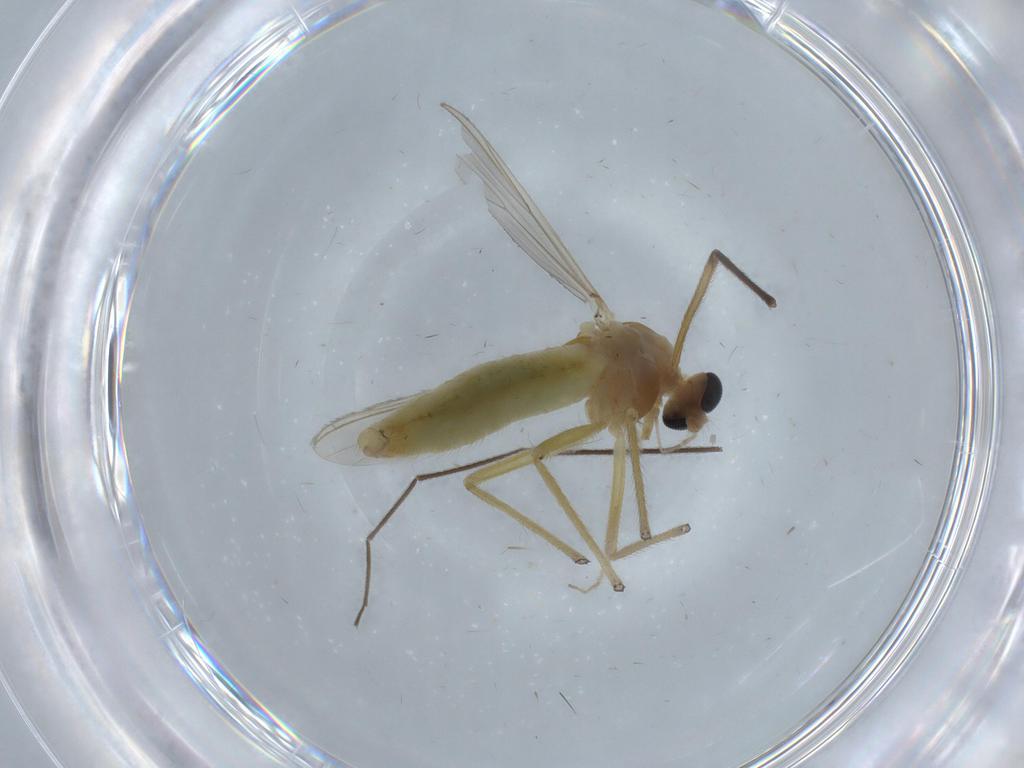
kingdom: Animalia
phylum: Arthropoda
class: Insecta
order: Diptera
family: Chironomidae
